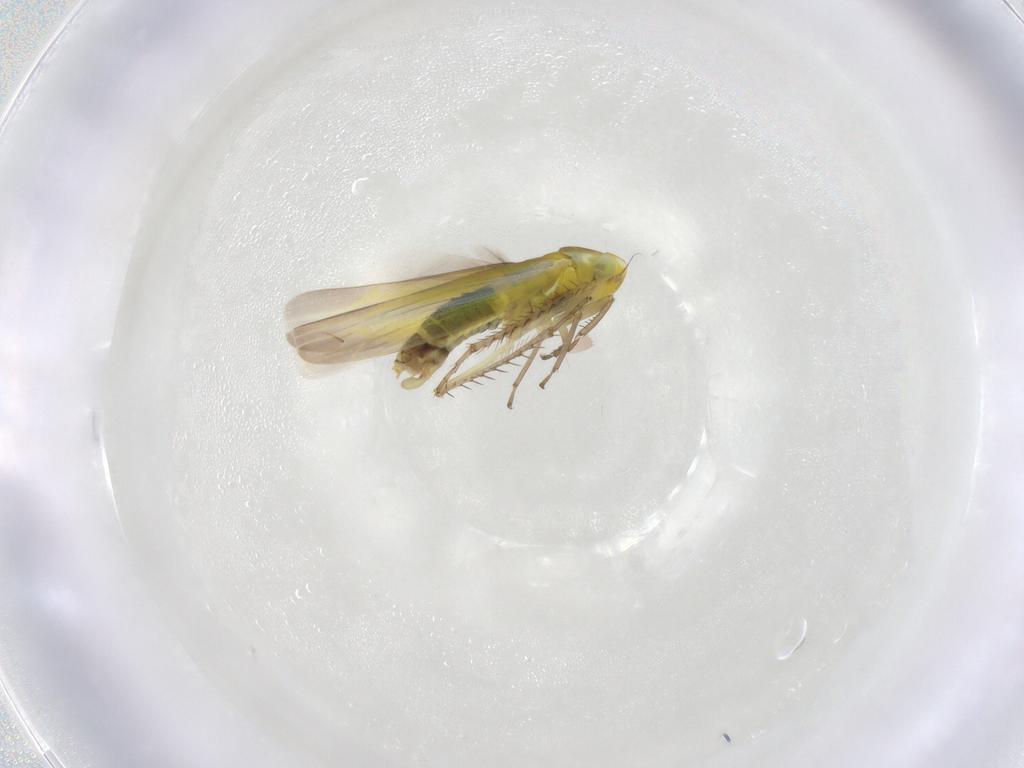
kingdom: Animalia
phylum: Arthropoda
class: Insecta
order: Hemiptera
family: Cicadellidae
